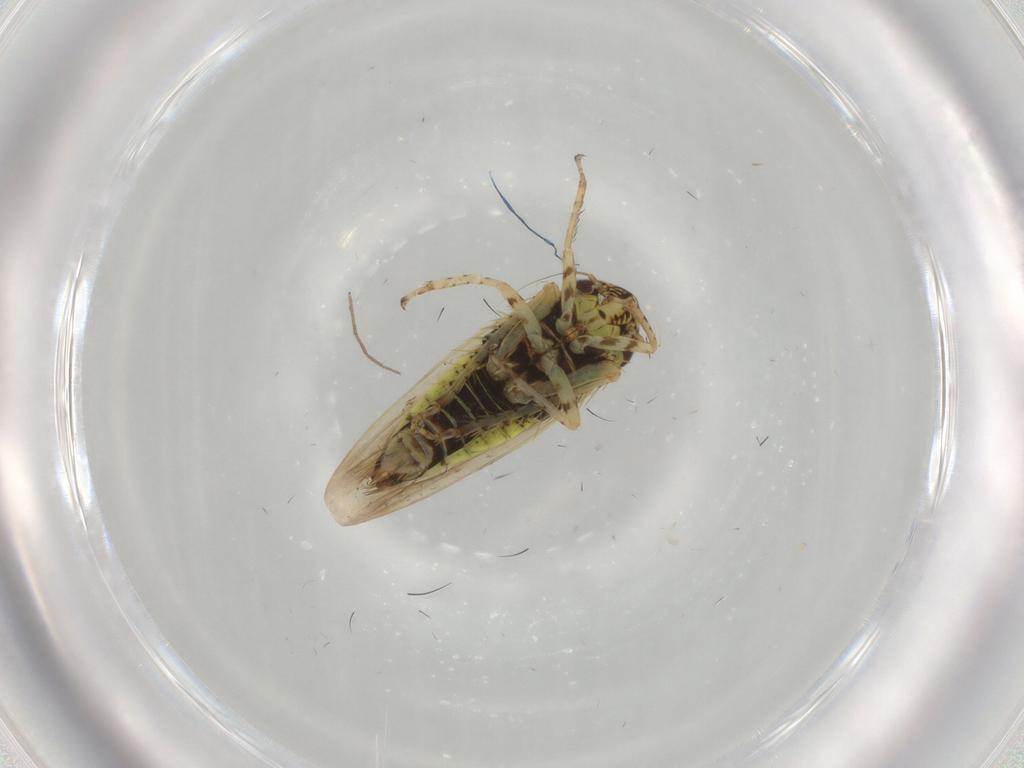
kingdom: Animalia
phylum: Arthropoda
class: Insecta
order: Hemiptera
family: Cicadellidae
